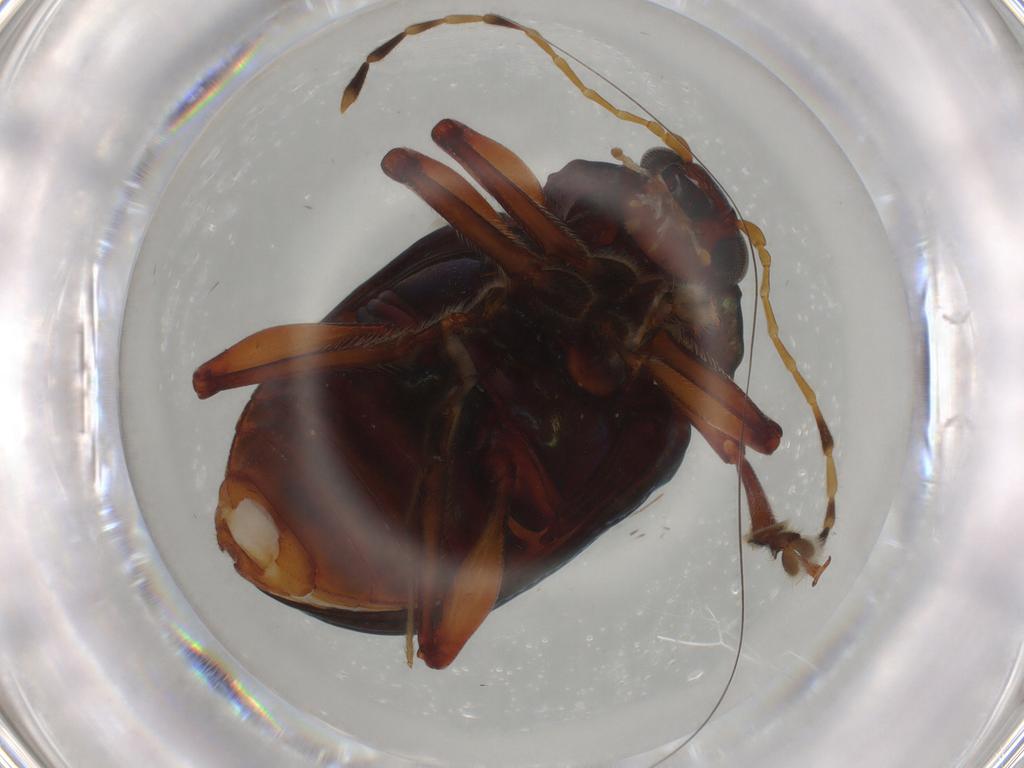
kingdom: Animalia
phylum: Arthropoda
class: Insecta
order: Coleoptera
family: Chrysomelidae
